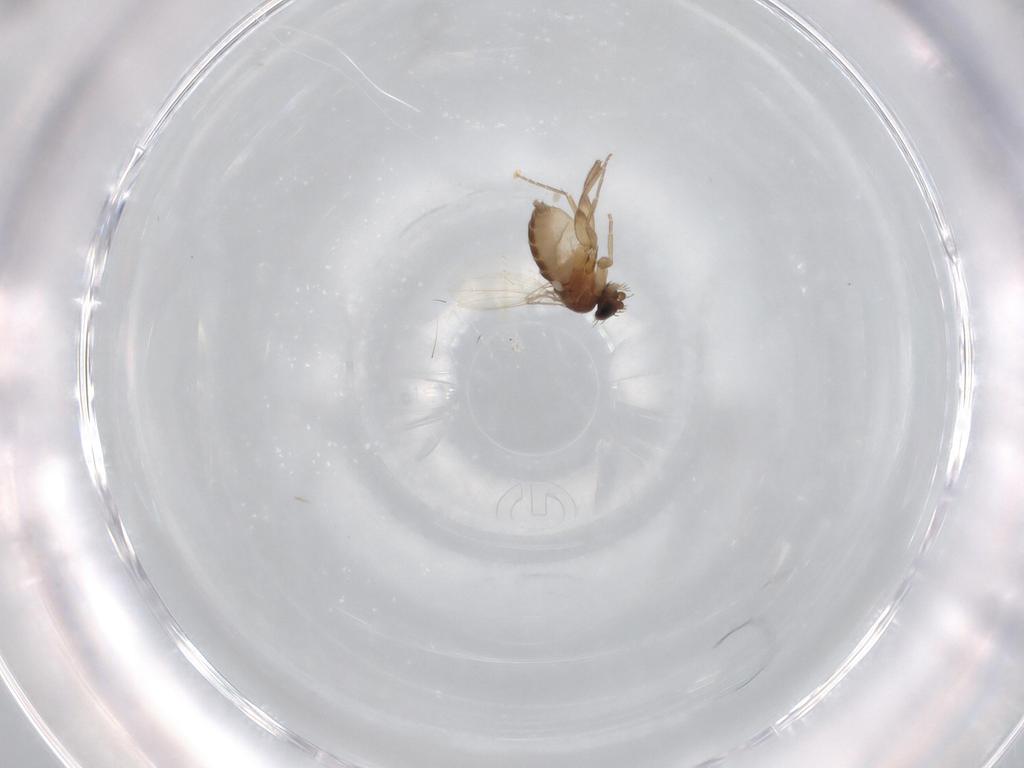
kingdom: Animalia
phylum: Arthropoda
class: Insecta
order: Diptera
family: Dolichopodidae
